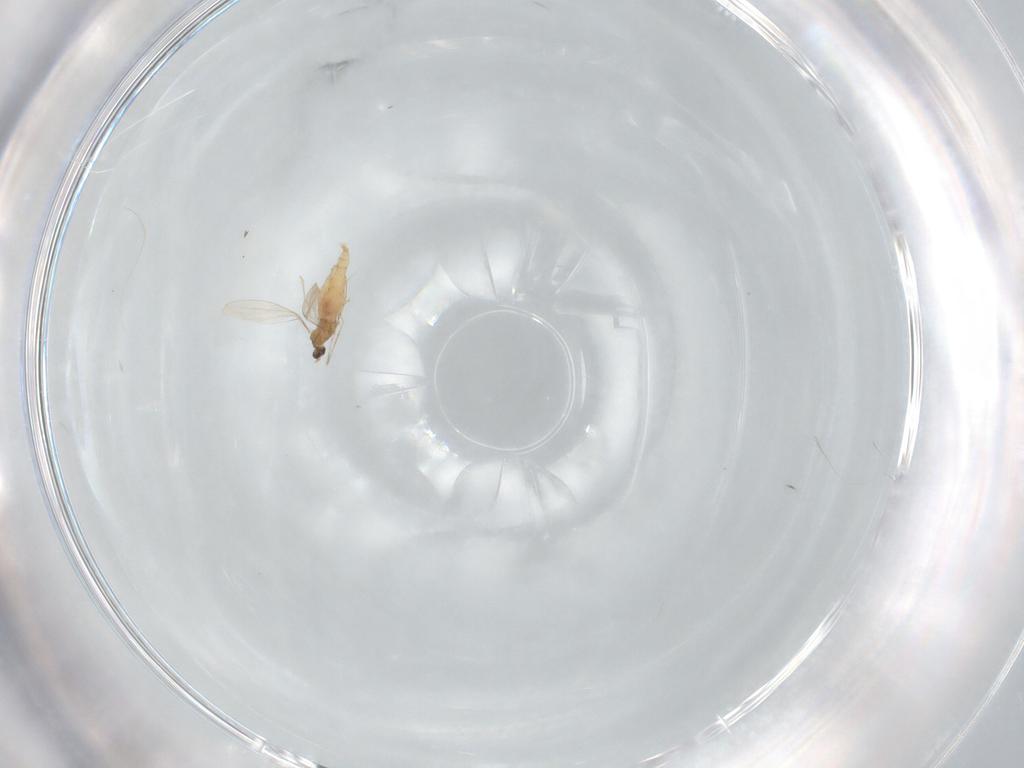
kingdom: Animalia
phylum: Arthropoda
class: Insecta
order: Diptera
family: Cecidomyiidae
